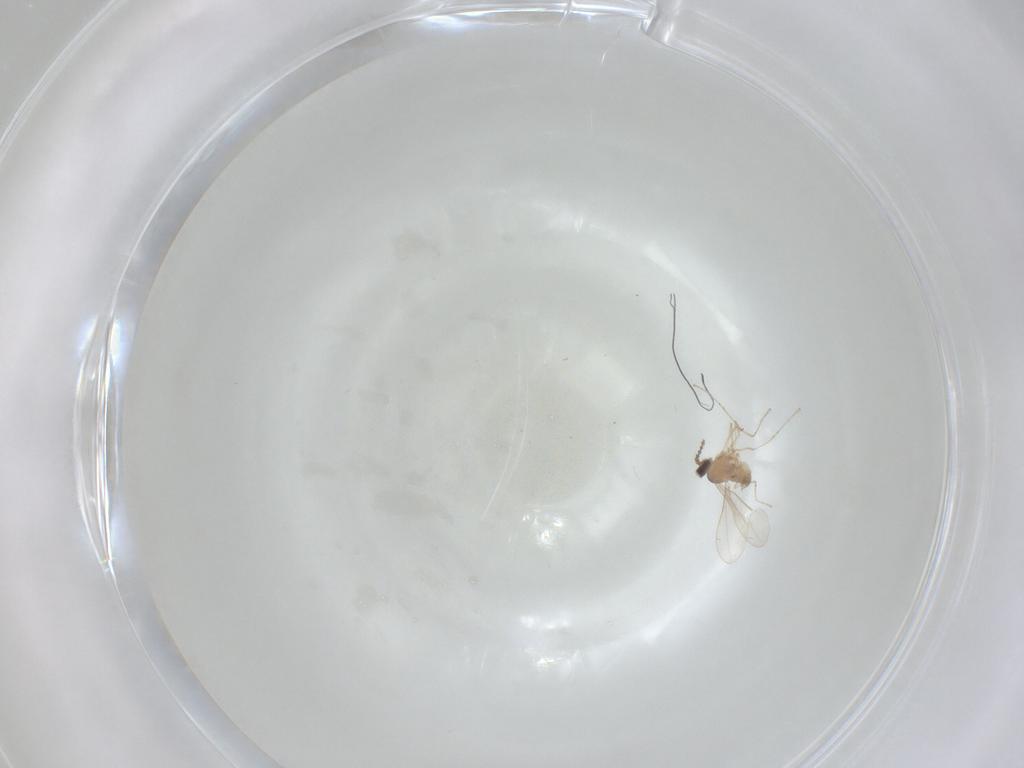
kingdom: Animalia
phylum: Arthropoda
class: Insecta
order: Diptera
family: Cecidomyiidae
